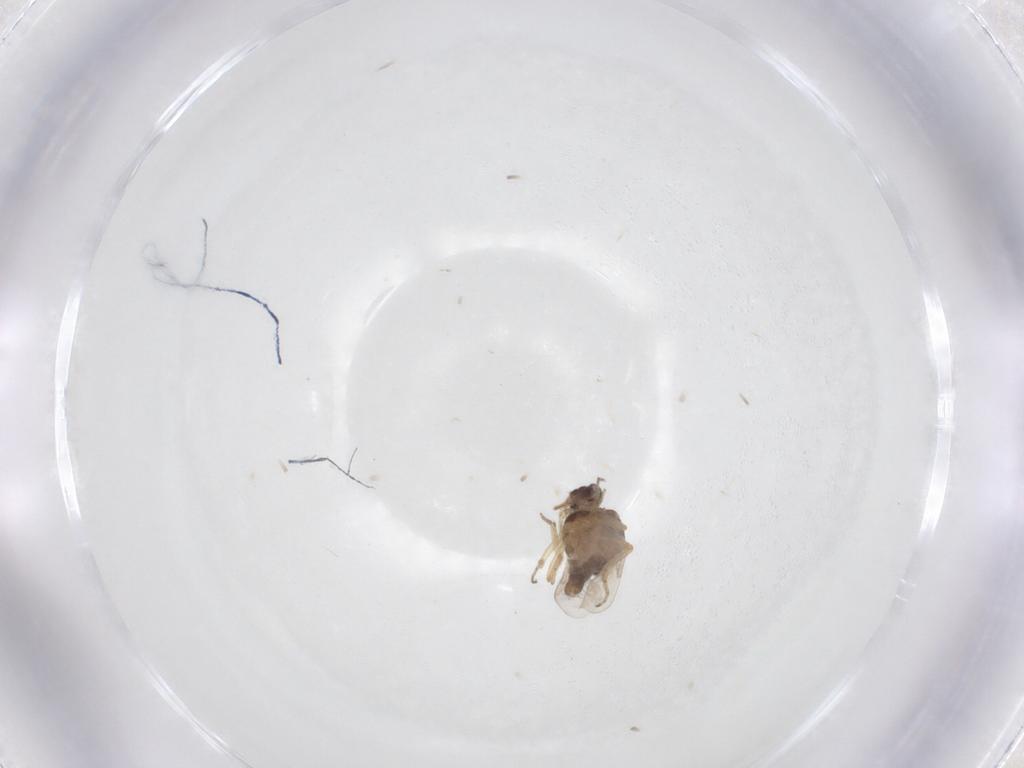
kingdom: Animalia
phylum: Arthropoda
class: Insecta
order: Diptera
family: Ceratopogonidae
